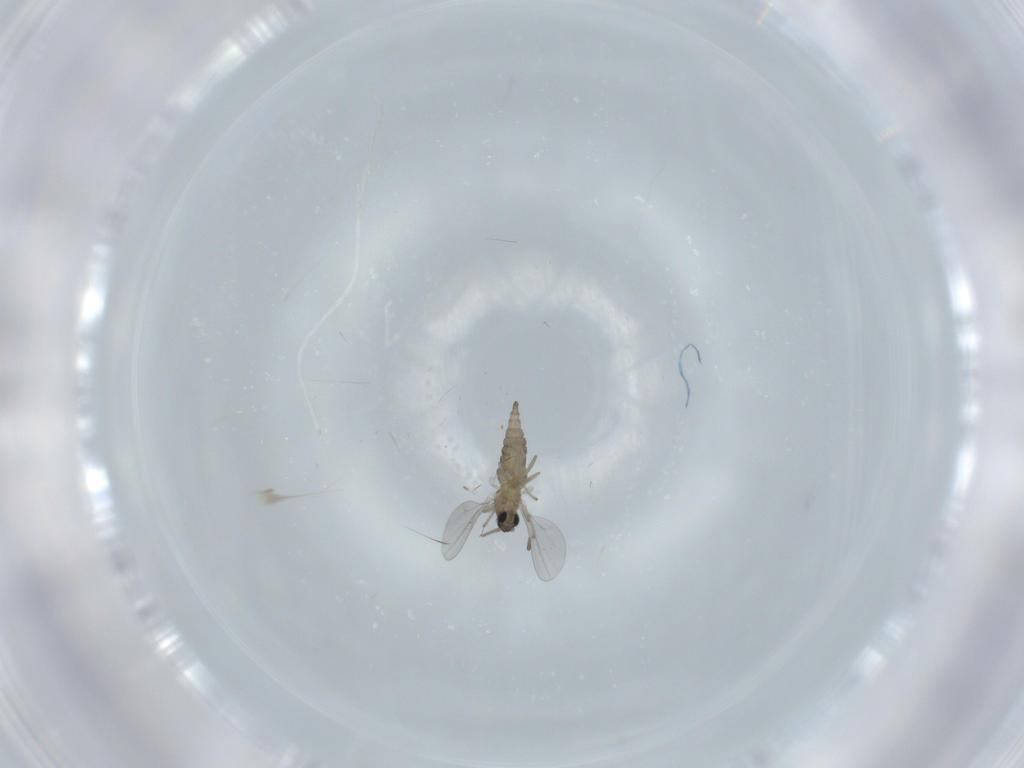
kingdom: Animalia
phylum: Arthropoda
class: Insecta
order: Diptera
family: Cecidomyiidae
